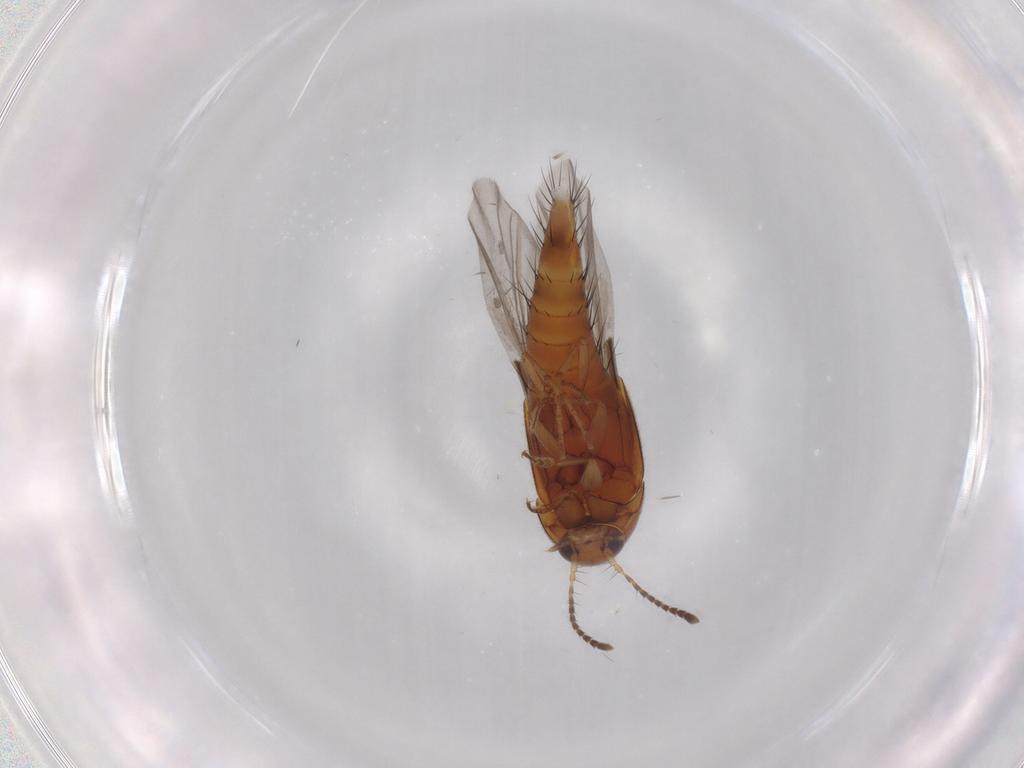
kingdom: Animalia
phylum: Arthropoda
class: Insecta
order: Coleoptera
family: Staphylinidae
